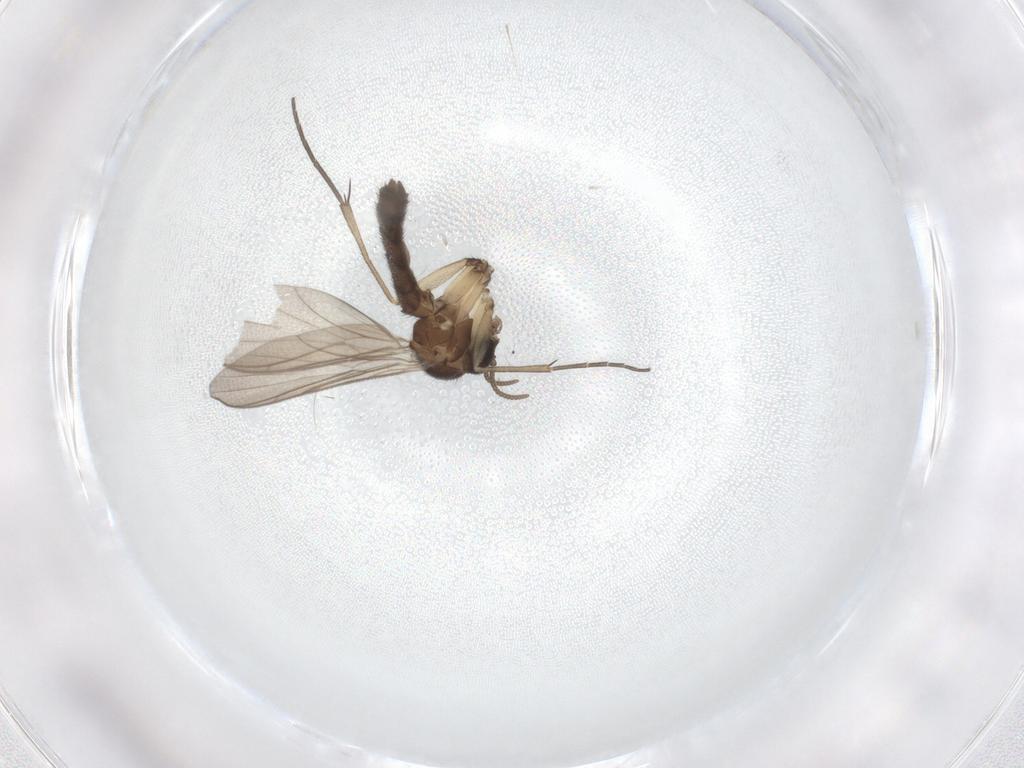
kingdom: Animalia
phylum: Arthropoda
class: Insecta
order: Diptera
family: Keroplatidae
